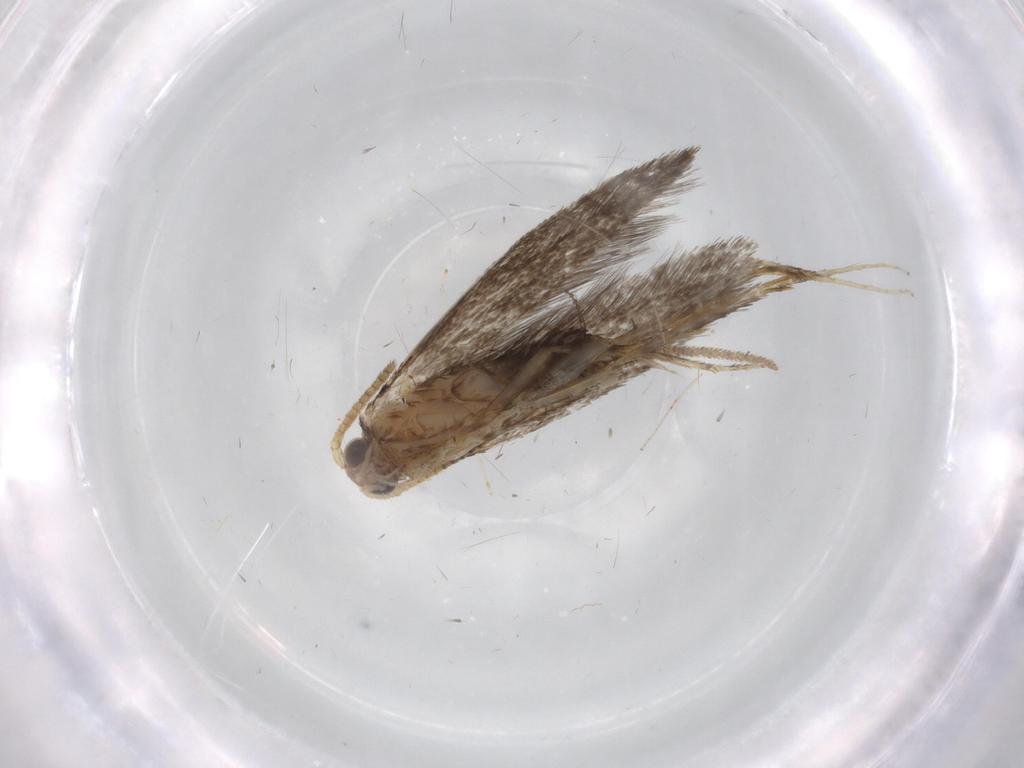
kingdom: Animalia
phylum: Arthropoda
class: Insecta
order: Lepidoptera
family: Tineidae
